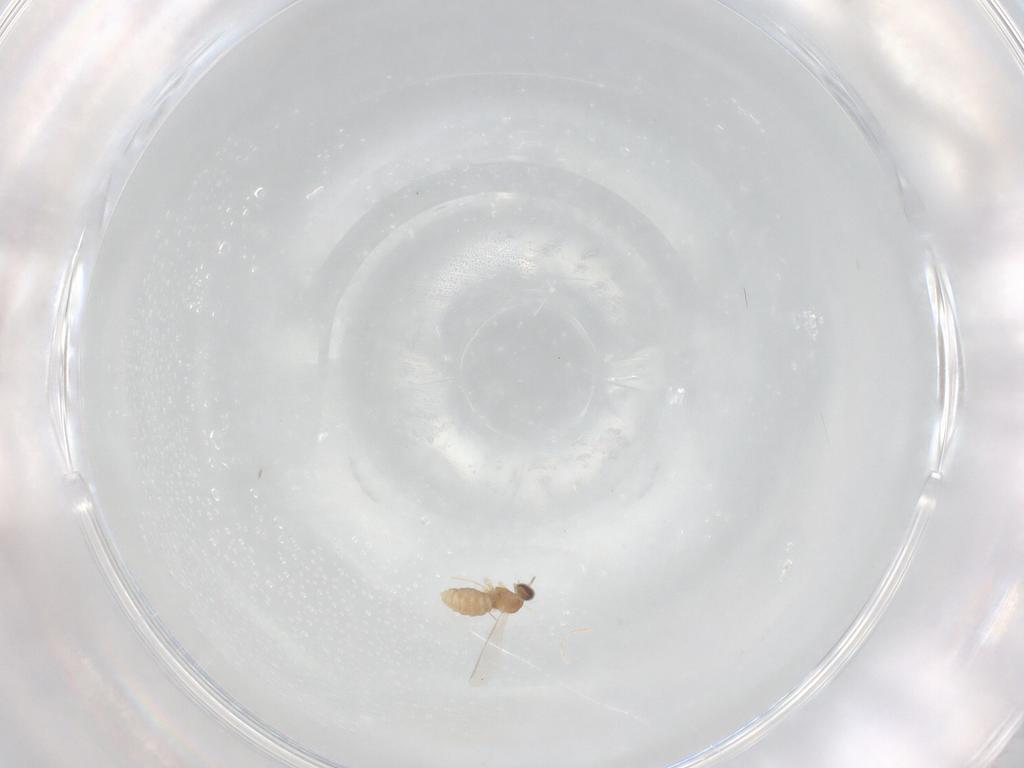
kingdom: Animalia
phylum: Arthropoda
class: Insecta
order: Diptera
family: Cecidomyiidae
